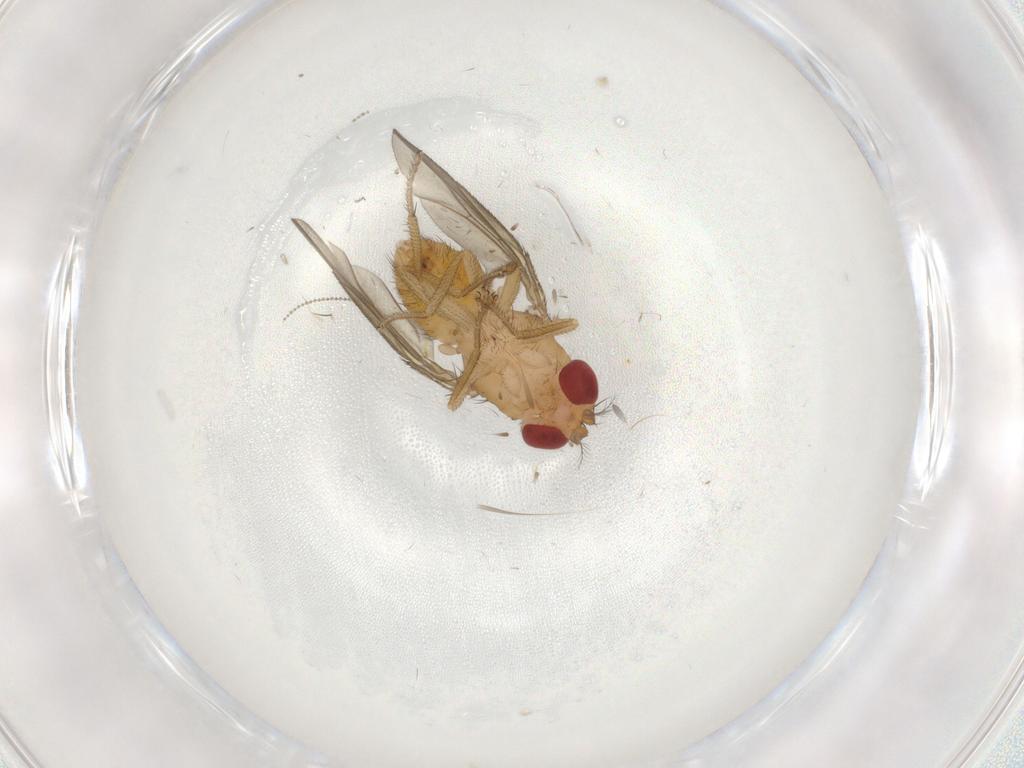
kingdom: Animalia
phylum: Arthropoda
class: Insecta
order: Diptera
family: Drosophilidae
